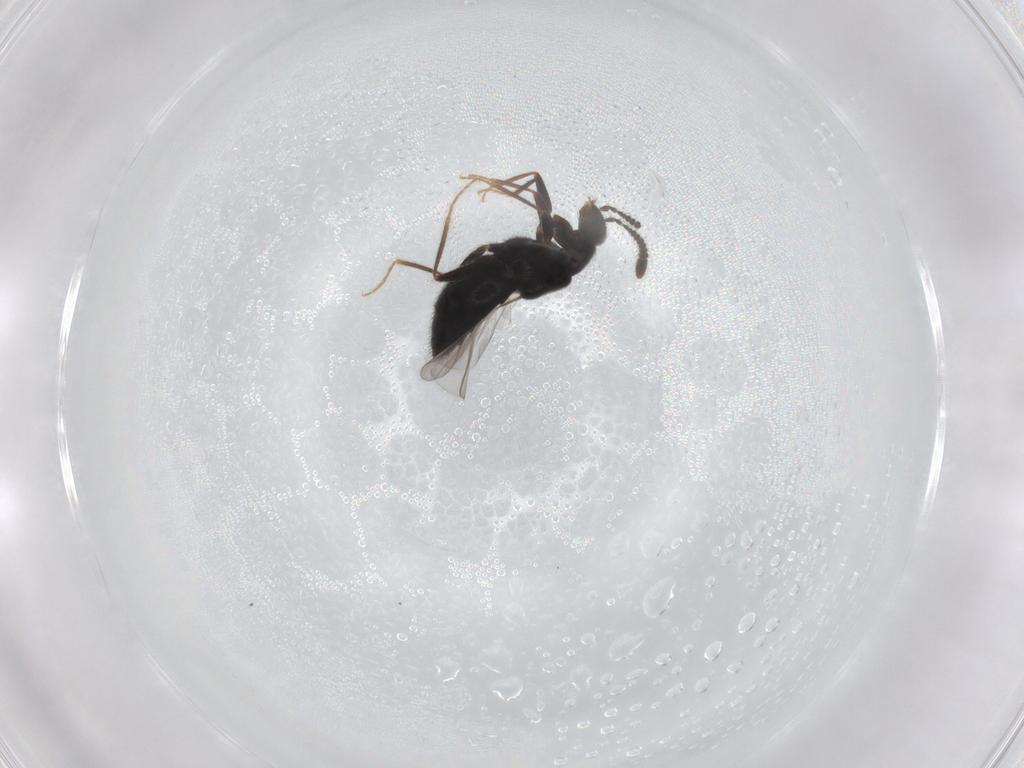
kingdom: Animalia
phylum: Arthropoda
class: Insecta
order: Coleoptera
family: Staphylinidae
